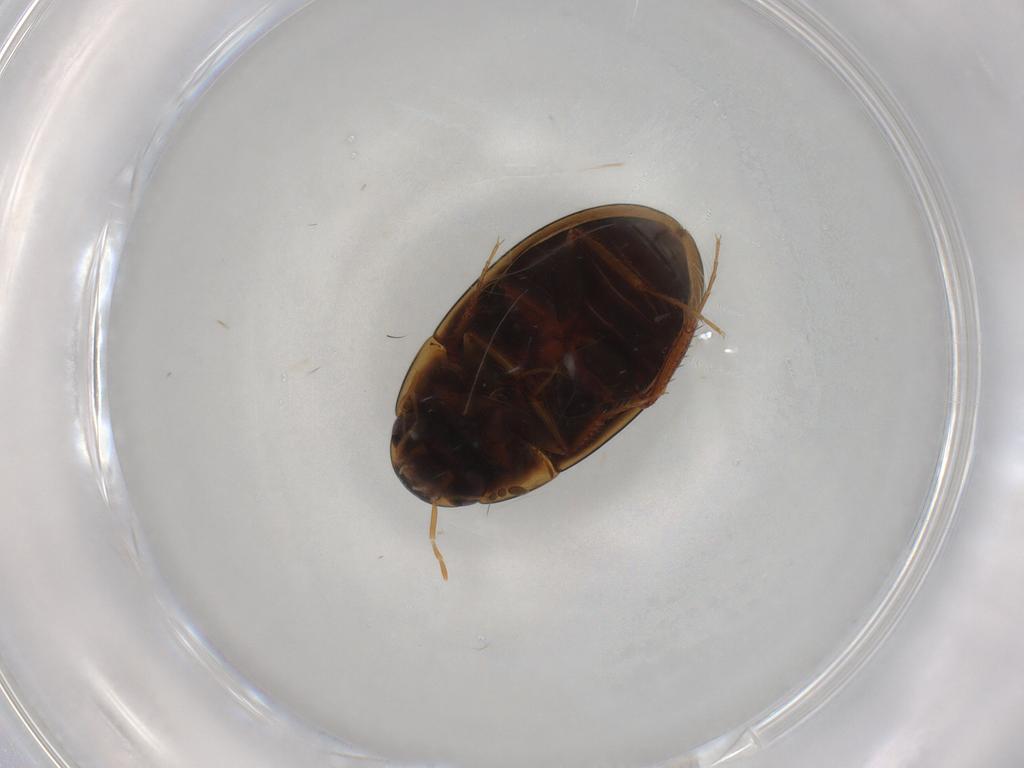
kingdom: Animalia
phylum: Arthropoda
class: Insecta
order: Coleoptera
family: Hydrophilidae
